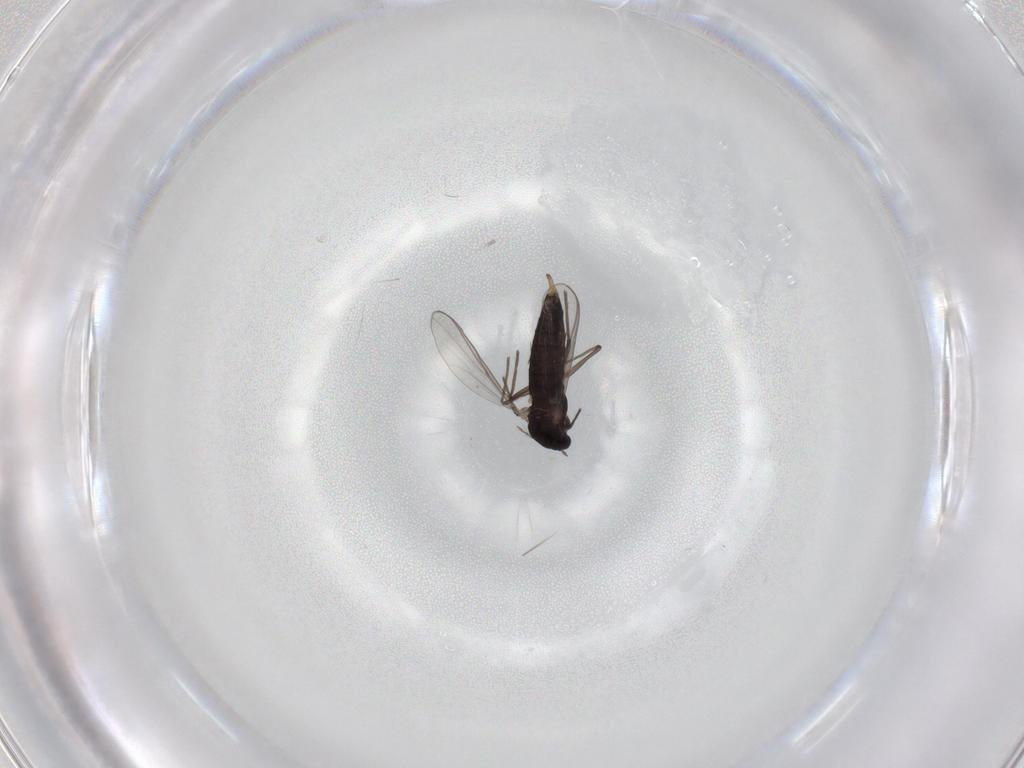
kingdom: Animalia
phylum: Arthropoda
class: Insecta
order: Diptera
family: Chironomidae
